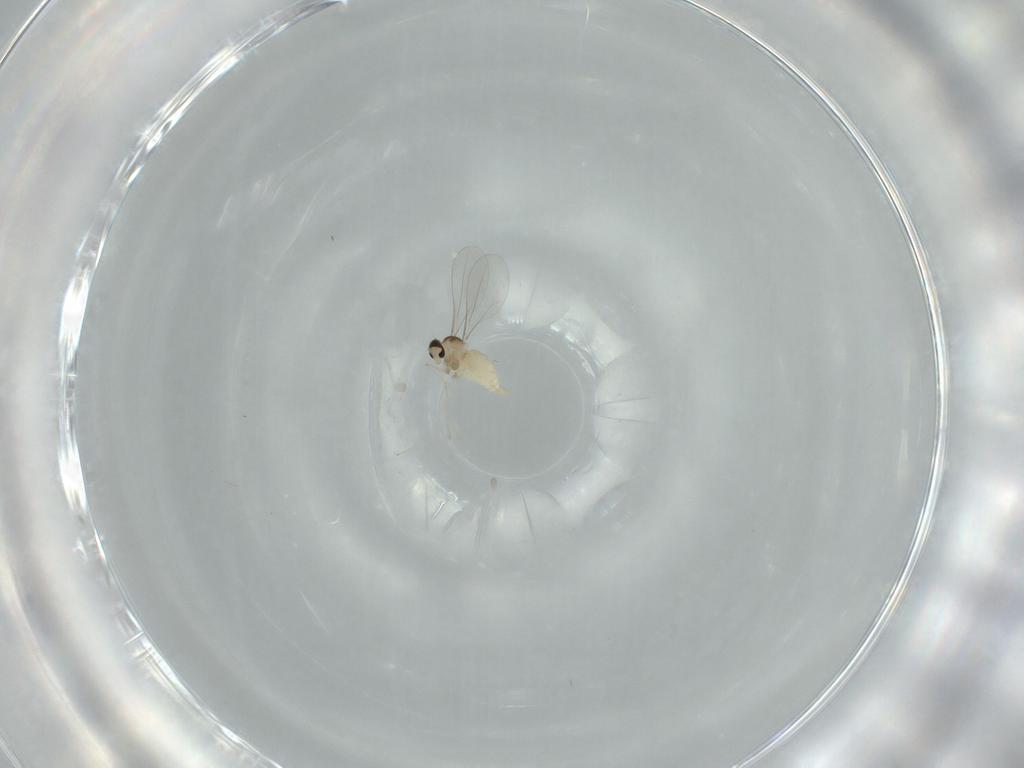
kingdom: Animalia
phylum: Arthropoda
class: Insecta
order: Diptera
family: Cecidomyiidae
